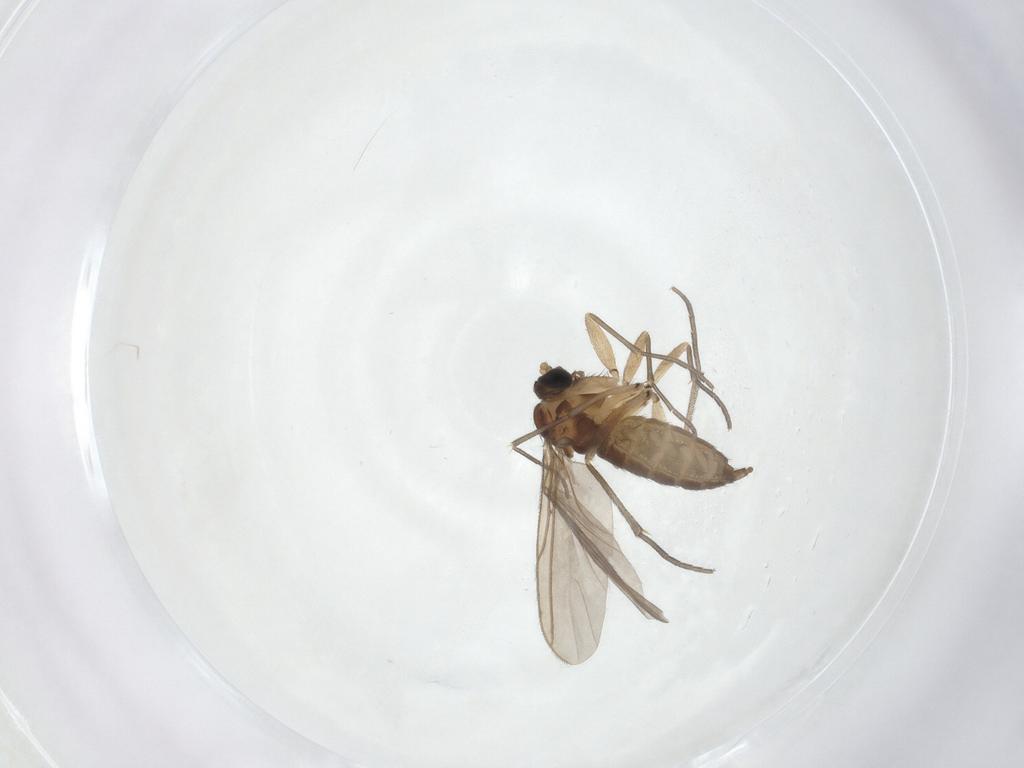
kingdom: Animalia
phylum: Arthropoda
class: Insecta
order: Diptera
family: Sciaridae
